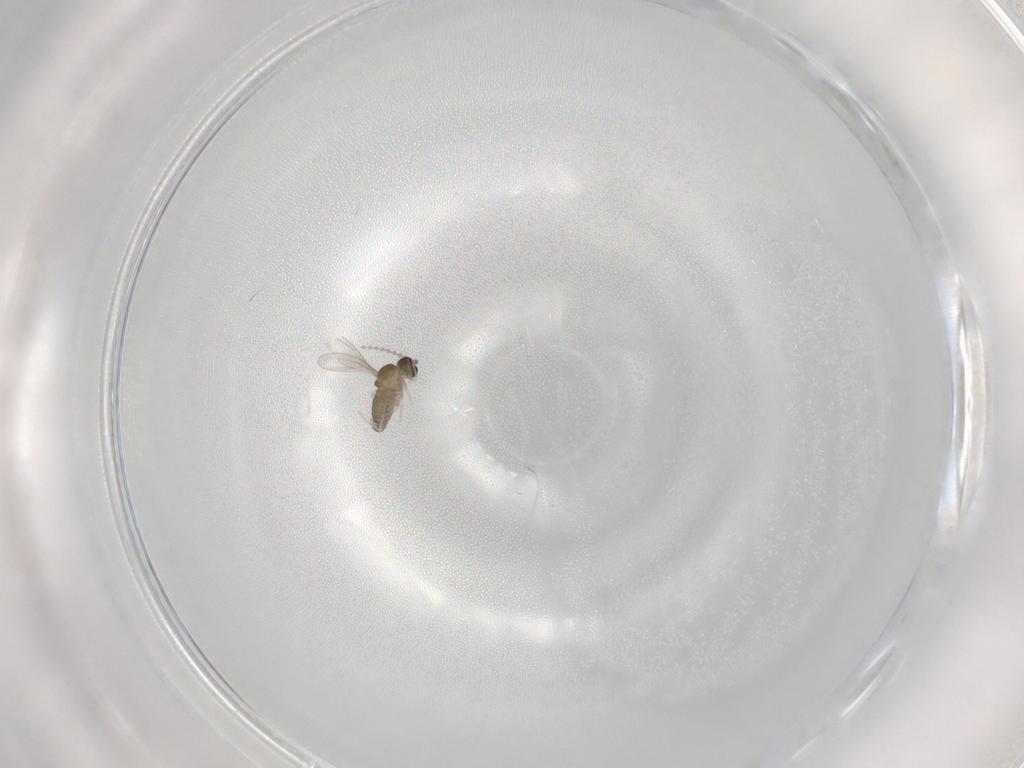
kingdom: Animalia
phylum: Arthropoda
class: Insecta
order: Diptera
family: Cecidomyiidae
